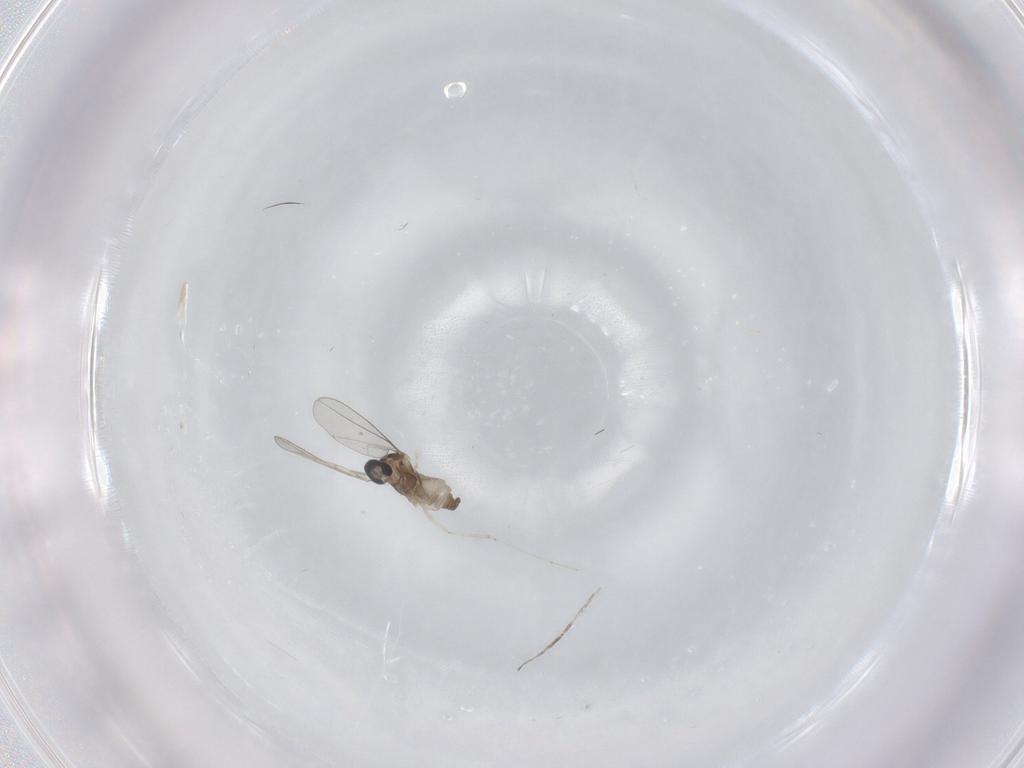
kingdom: Animalia
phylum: Arthropoda
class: Insecta
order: Diptera
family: Ceratopogonidae
